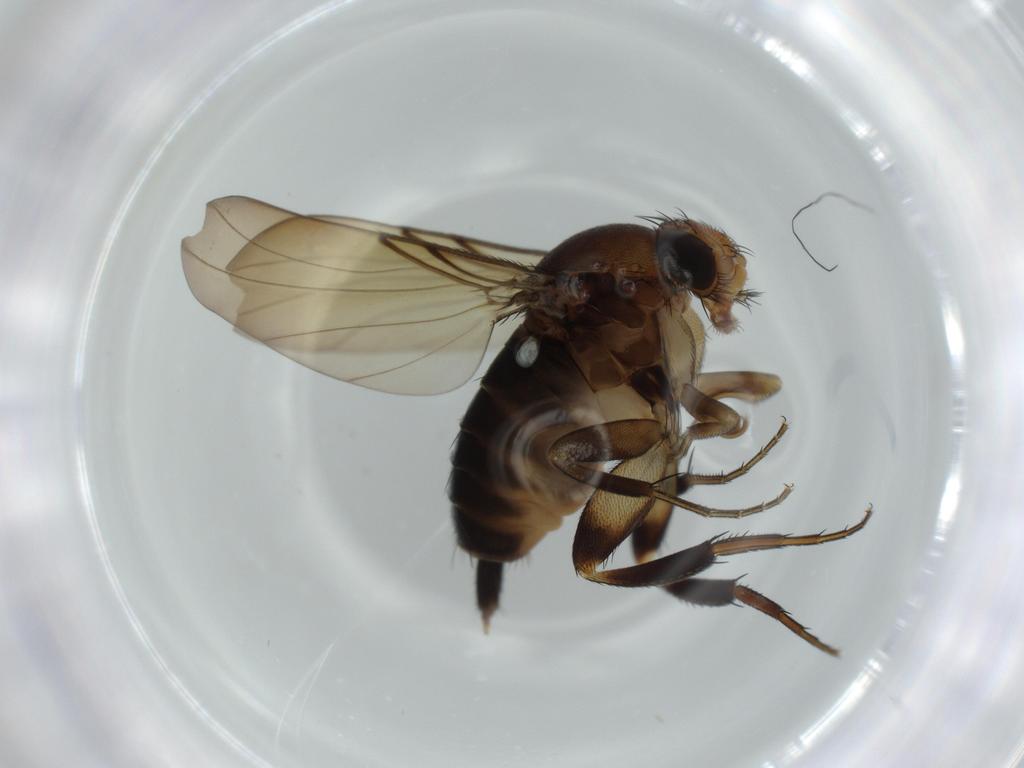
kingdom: Animalia
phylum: Arthropoda
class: Insecta
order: Diptera
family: Phoridae
